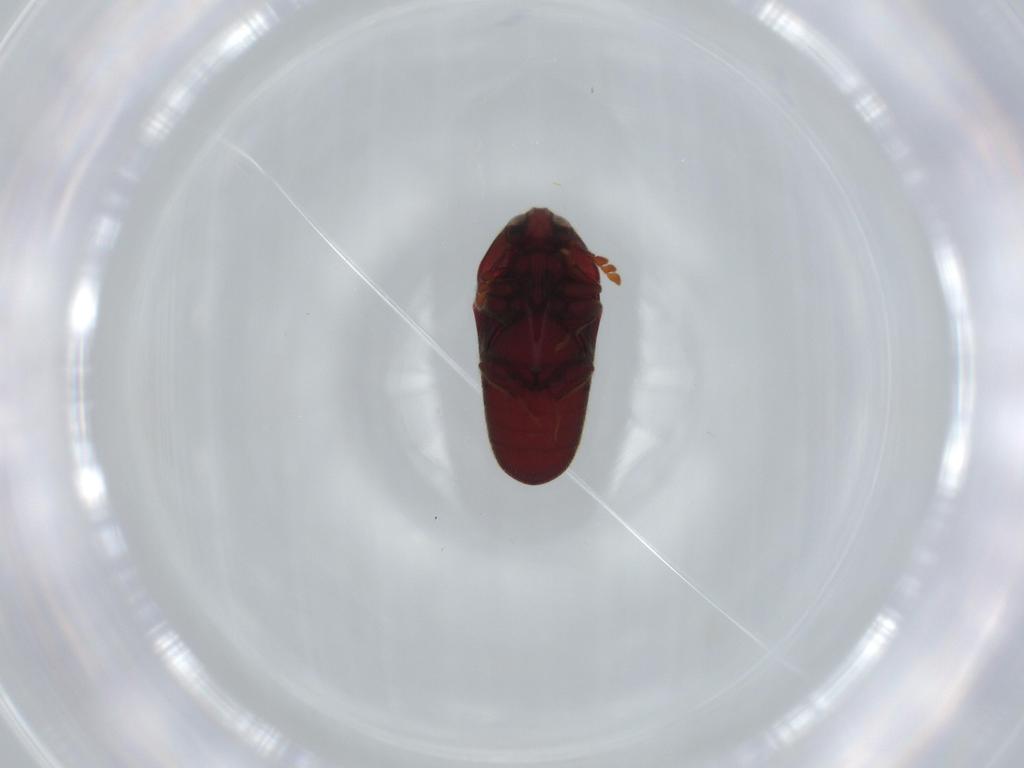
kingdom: Animalia
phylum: Arthropoda
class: Insecta
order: Coleoptera
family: Throscidae
